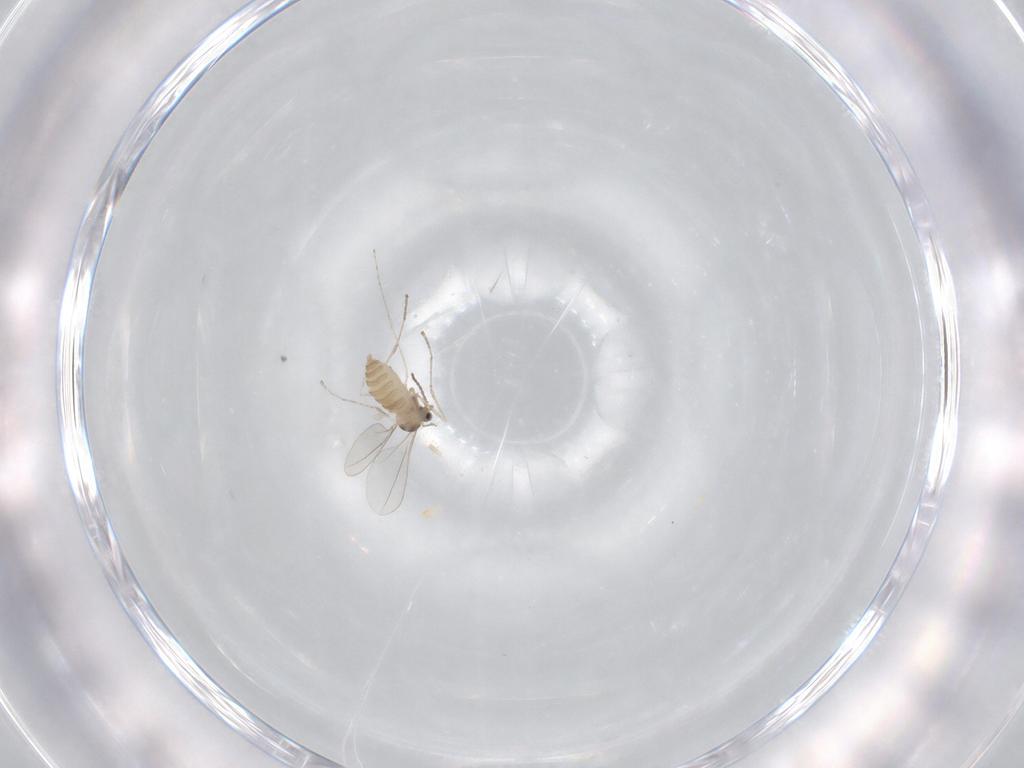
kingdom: Animalia
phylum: Arthropoda
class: Insecta
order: Diptera
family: Cecidomyiidae
